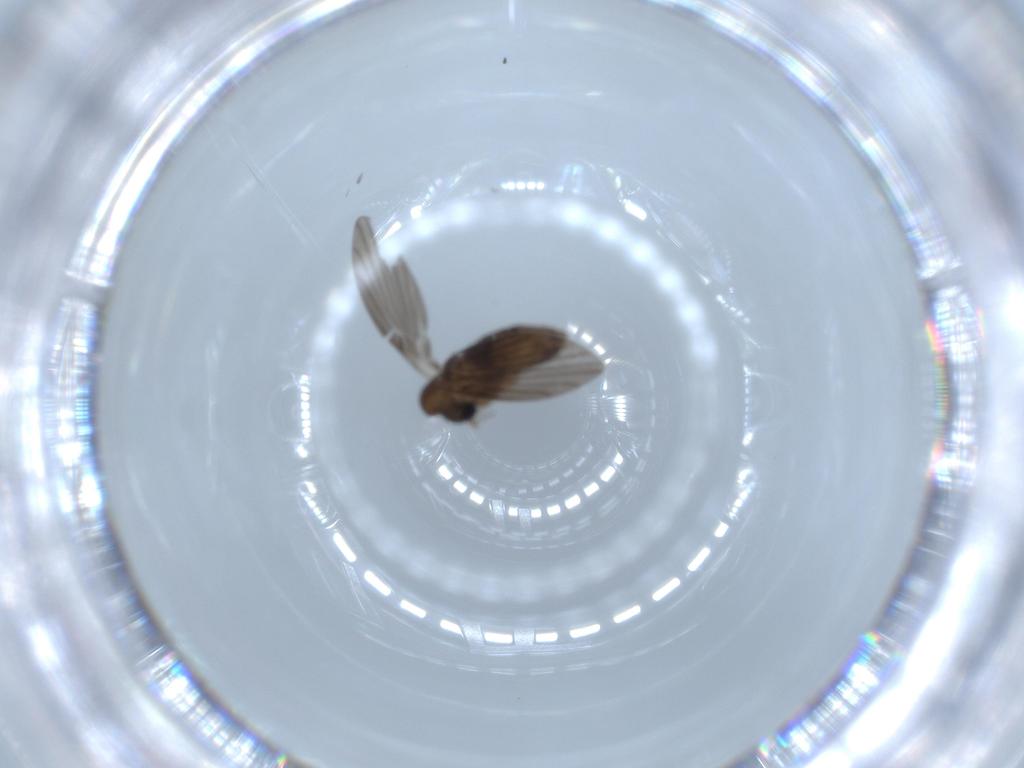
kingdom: Animalia
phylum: Arthropoda
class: Insecta
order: Diptera
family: Psychodidae
